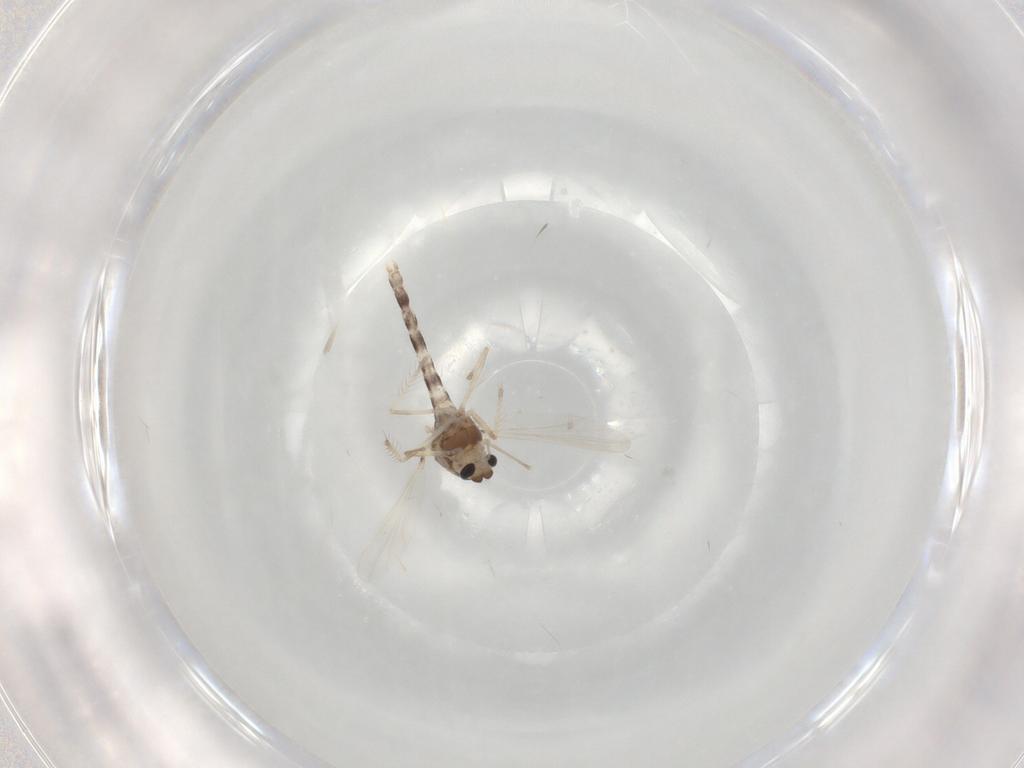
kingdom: Animalia
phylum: Arthropoda
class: Insecta
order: Diptera
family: Chironomidae
